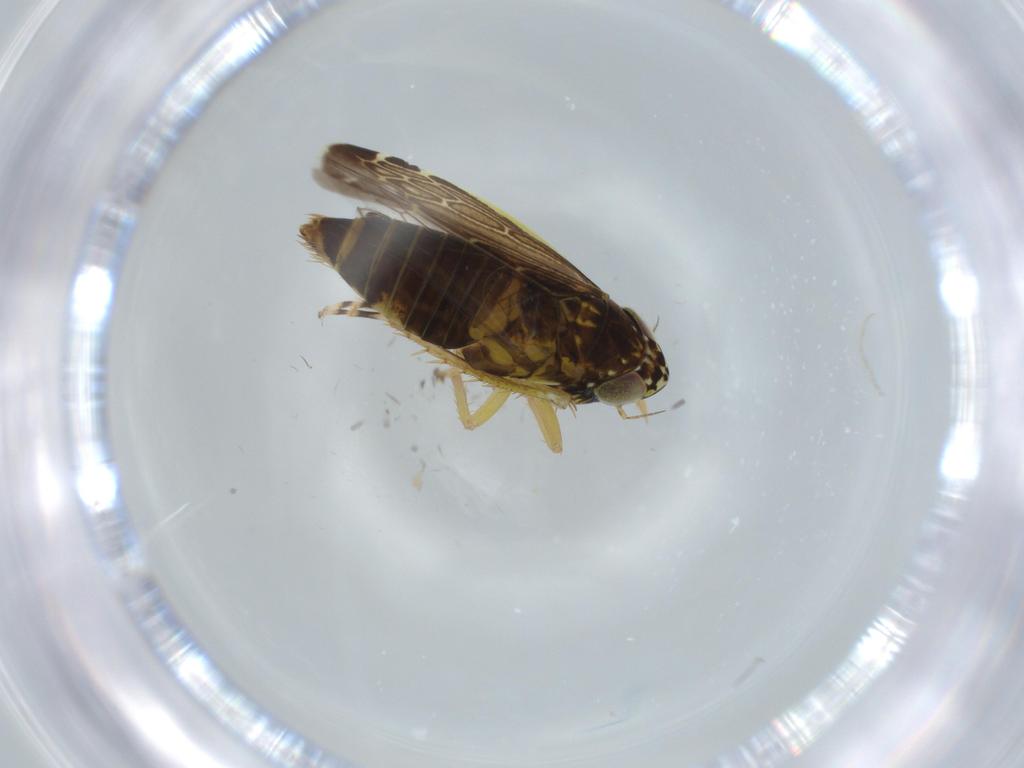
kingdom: Animalia
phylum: Arthropoda
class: Insecta
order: Hemiptera
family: Cicadellidae
